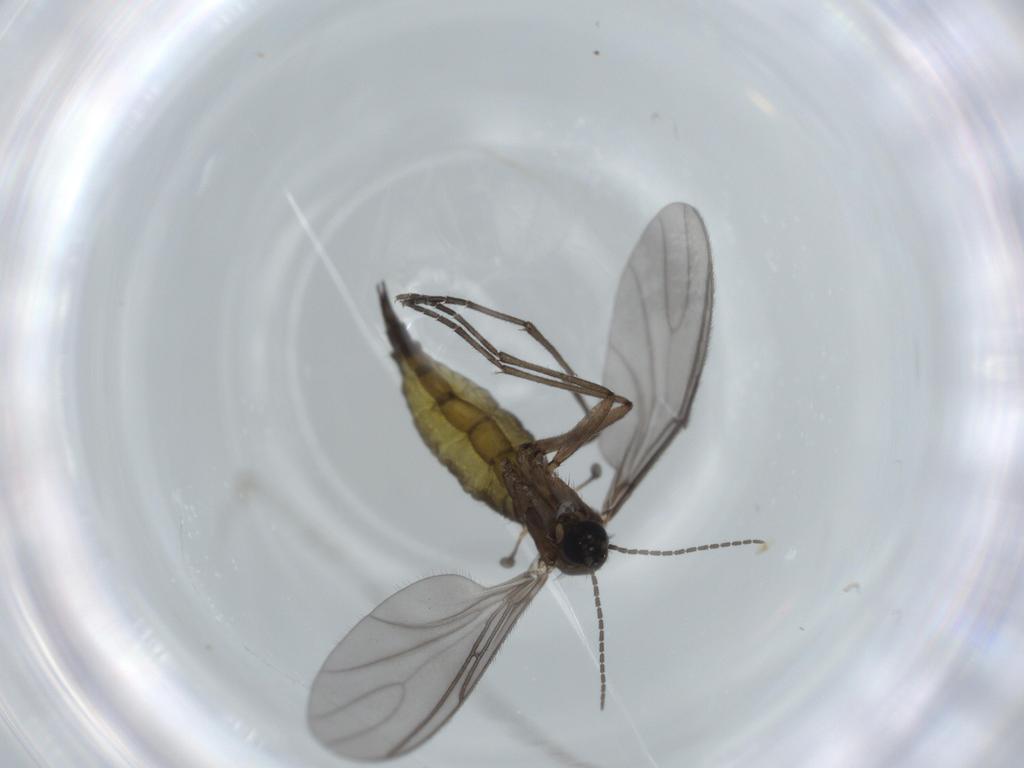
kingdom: Animalia
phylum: Arthropoda
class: Insecta
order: Diptera
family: Sciaridae
